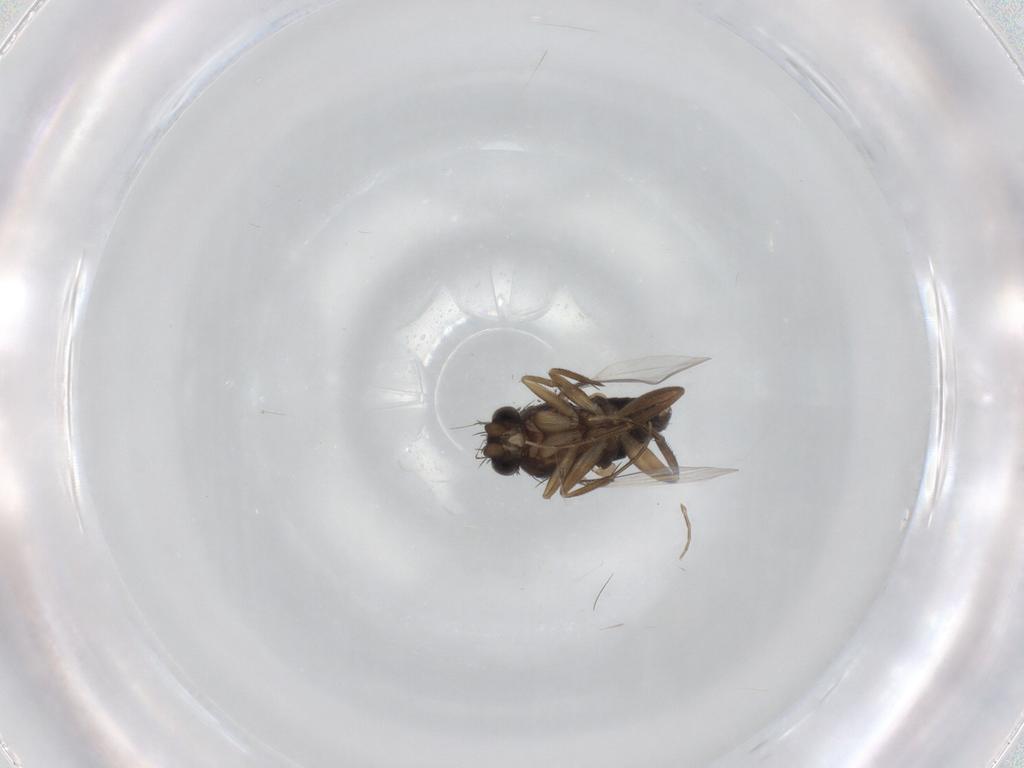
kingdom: Animalia
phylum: Arthropoda
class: Insecta
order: Diptera
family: Phoridae
